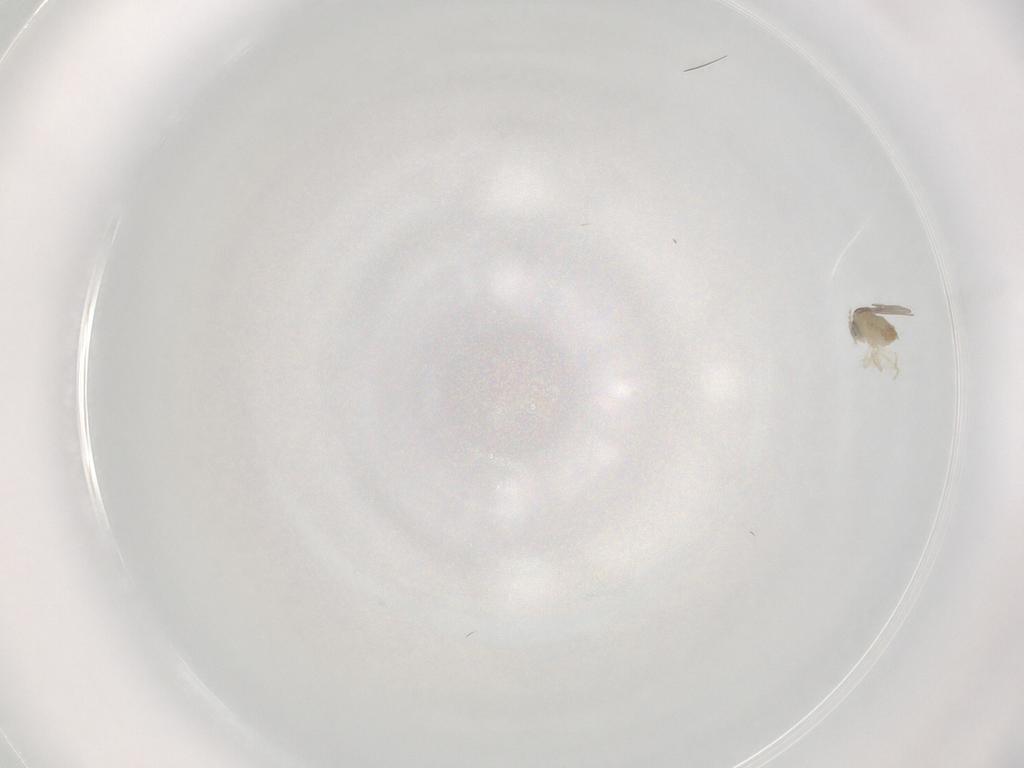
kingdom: Animalia
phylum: Arthropoda
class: Insecta
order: Diptera
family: Cecidomyiidae
